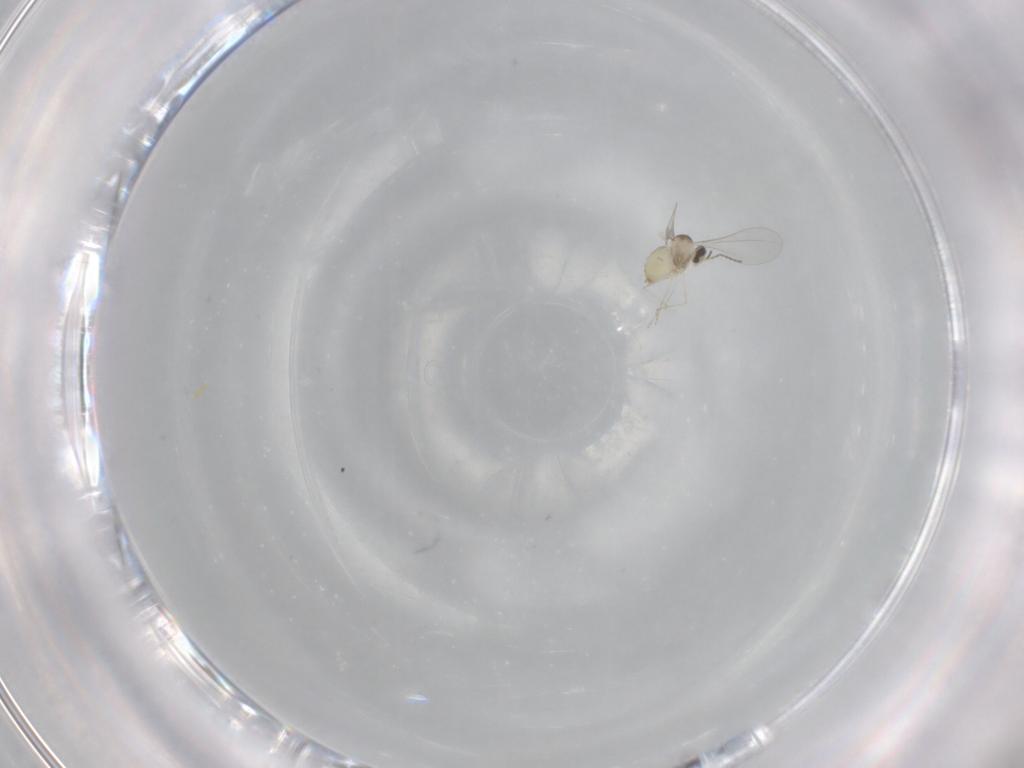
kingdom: Animalia
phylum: Arthropoda
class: Insecta
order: Diptera
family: Cecidomyiidae
